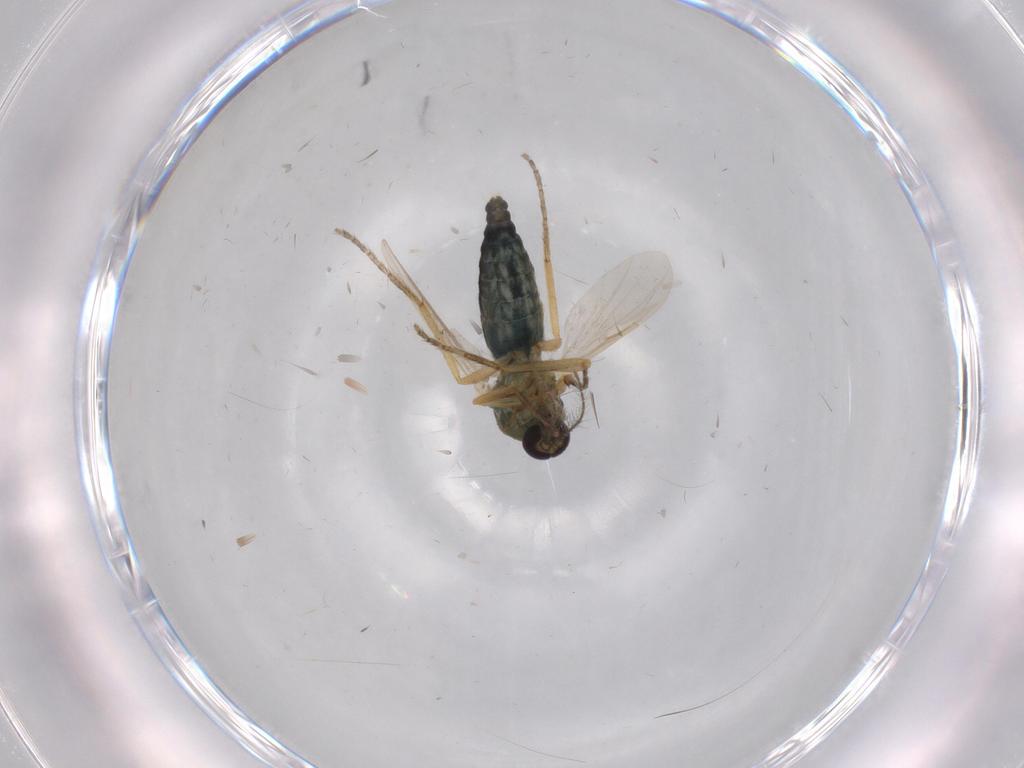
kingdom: Animalia
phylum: Arthropoda
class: Insecta
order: Diptera
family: Ceratopogonidae
